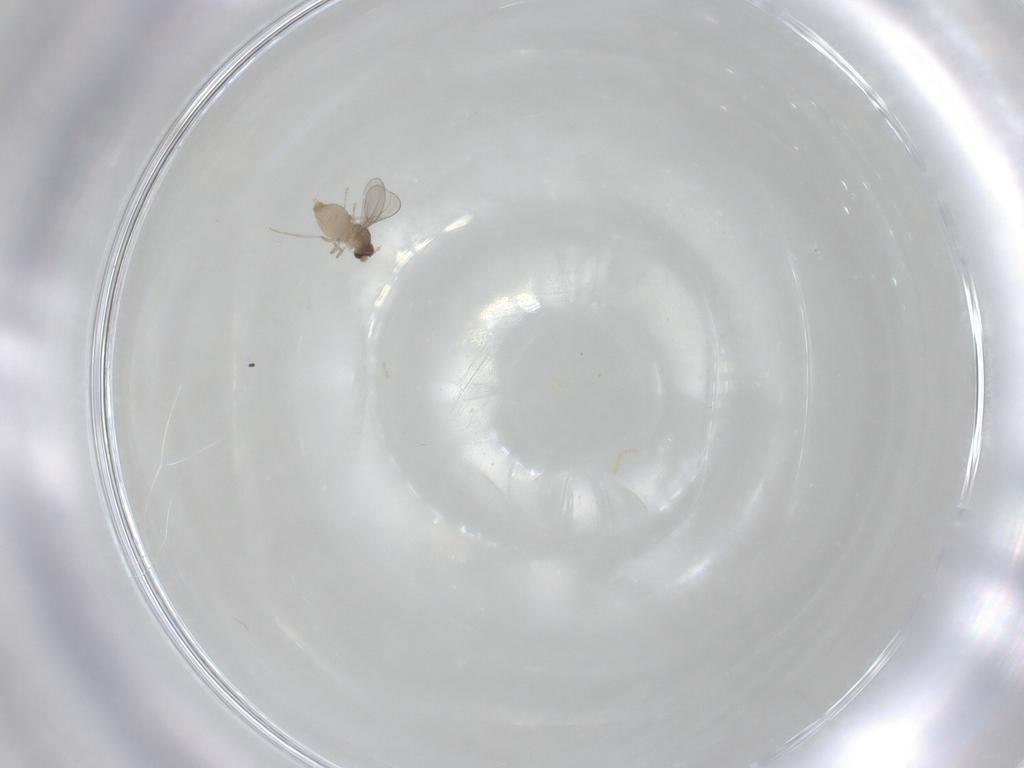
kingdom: Animalia
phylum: Arthropoda
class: Insecta
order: Diptera
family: Cecidomyiidae
